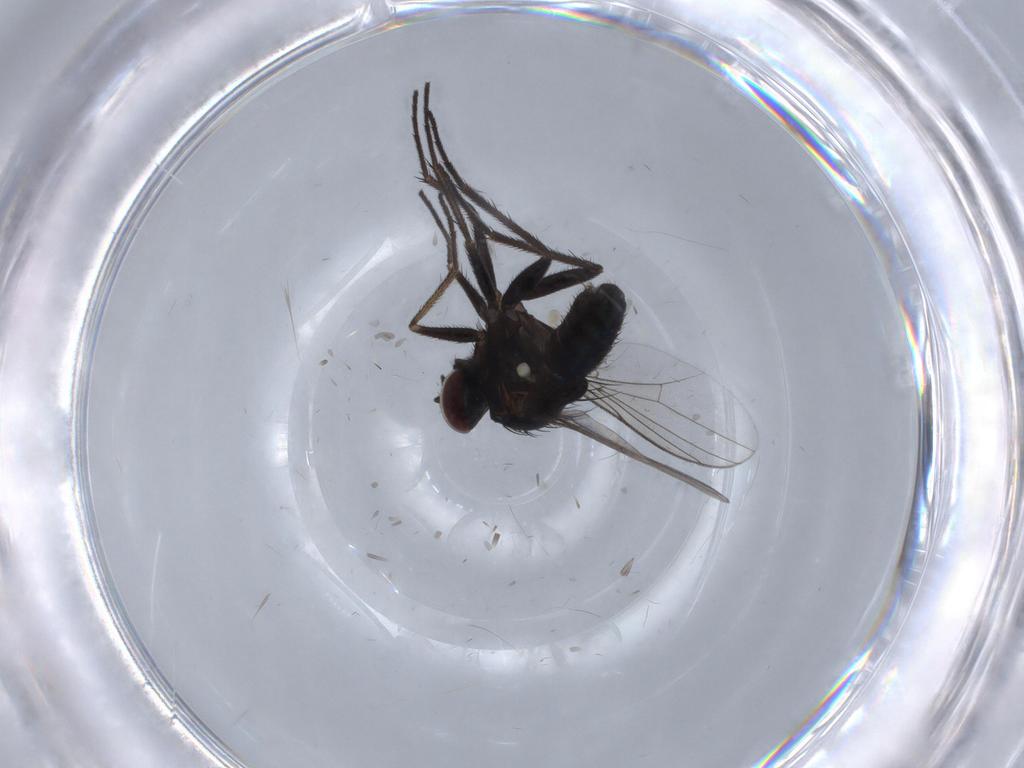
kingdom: Animalia
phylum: Arthropoda
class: Insecta
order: Diptera
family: Dolichopodidae
